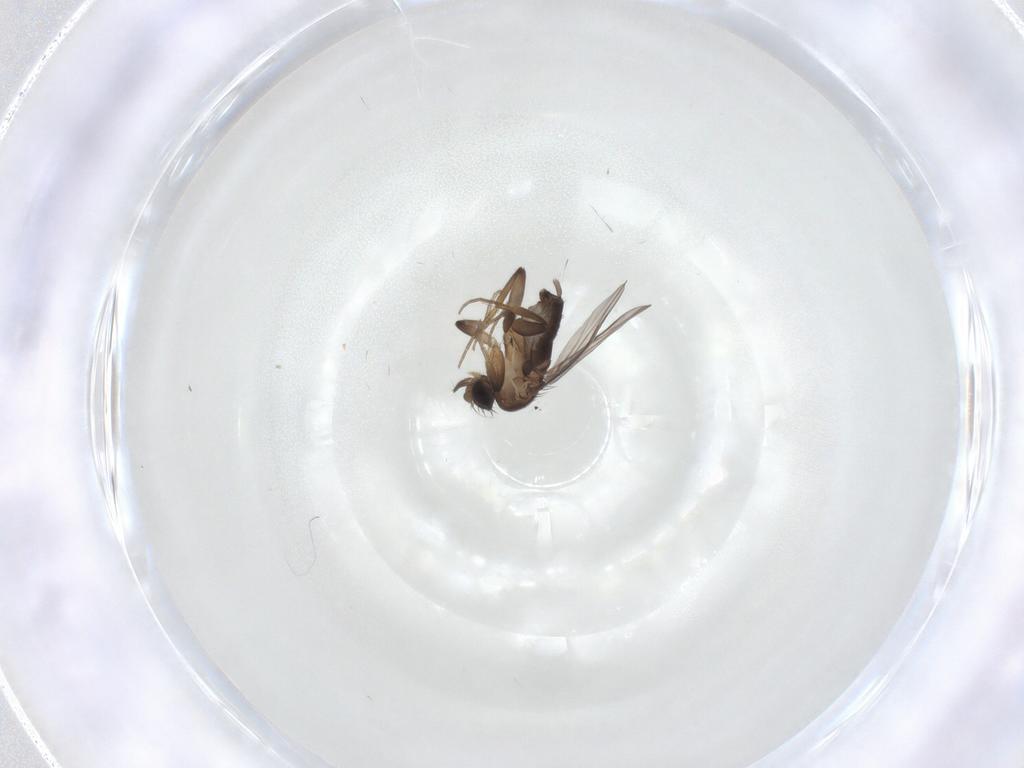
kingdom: Animalia
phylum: Arthropoda
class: Insecta
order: Diptera
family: Phoridae
